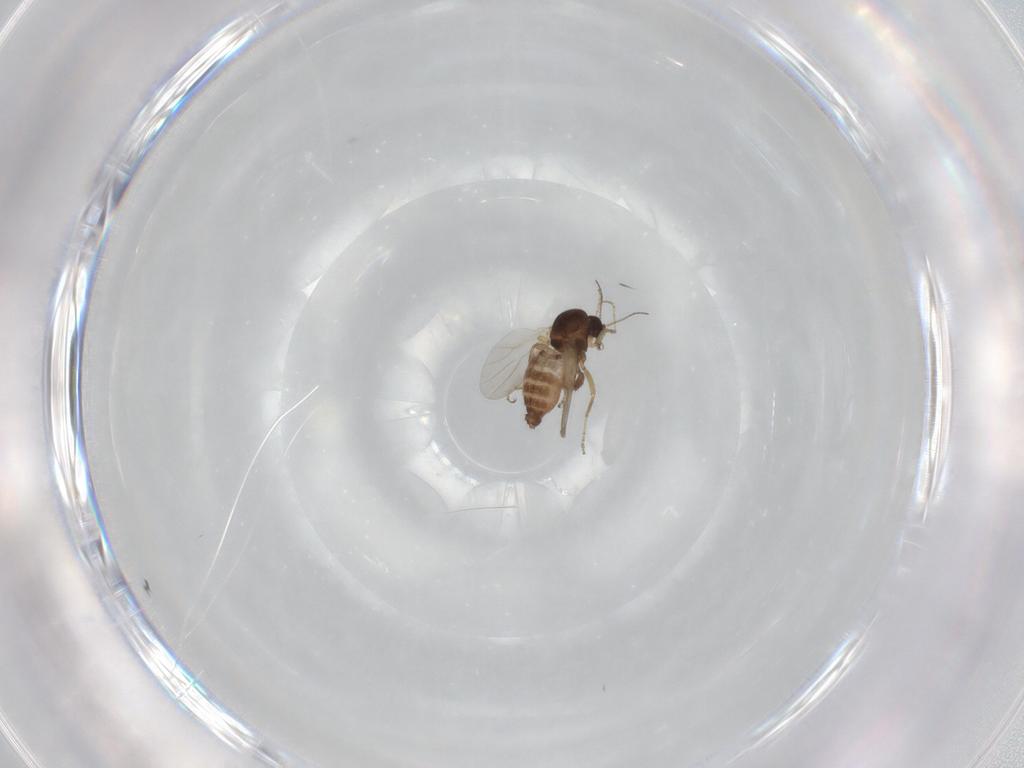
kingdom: Animalia
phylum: Arthropoda
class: Insecta
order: Diptera
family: Ceratopogonidae
